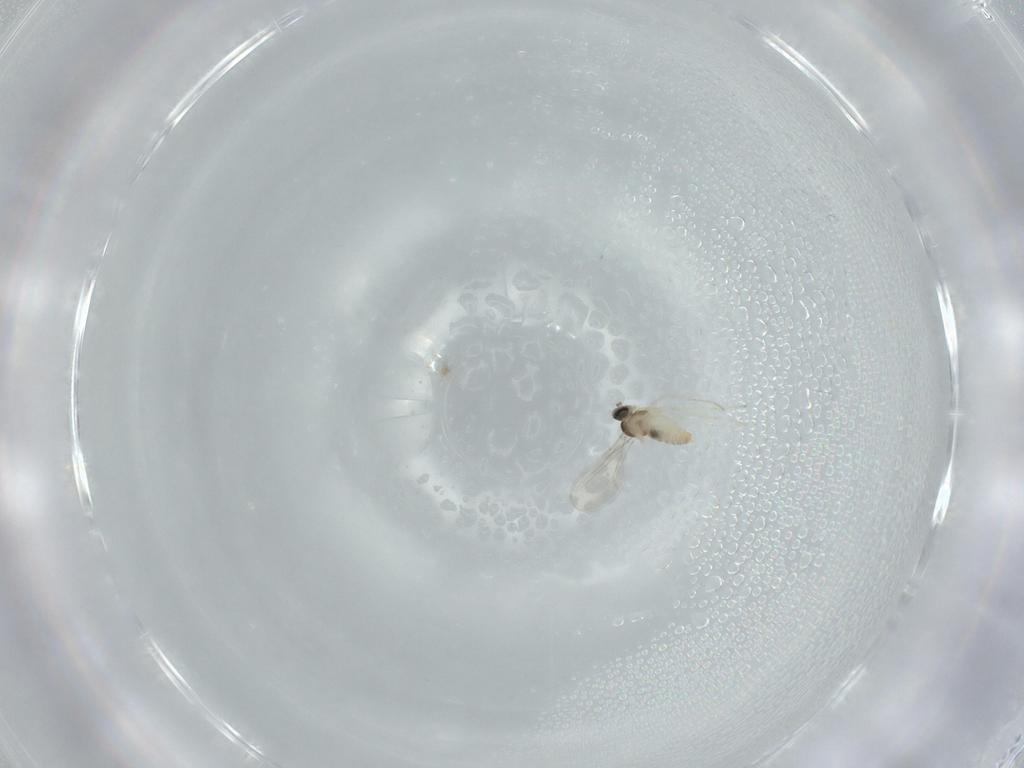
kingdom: Animalia
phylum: Arthropoda
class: Insecta
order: Diptera
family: Cecidomyiidae
